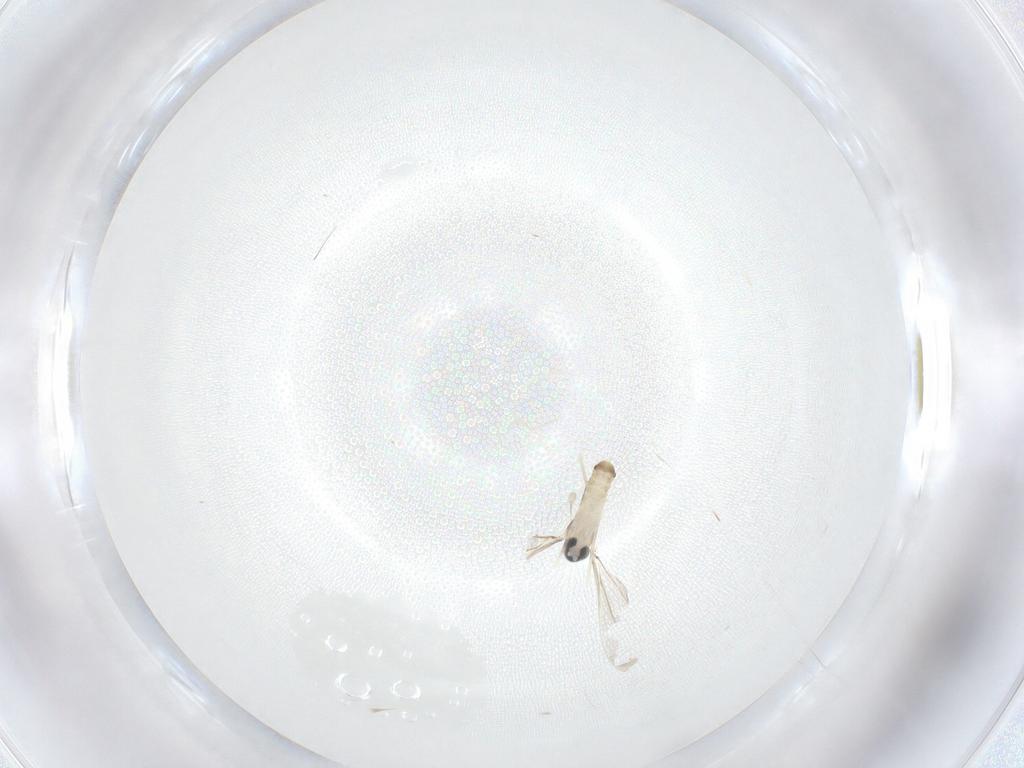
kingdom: Animalia
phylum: Arthropoda
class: Insecta
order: Diptera
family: Cecidomyiidae
